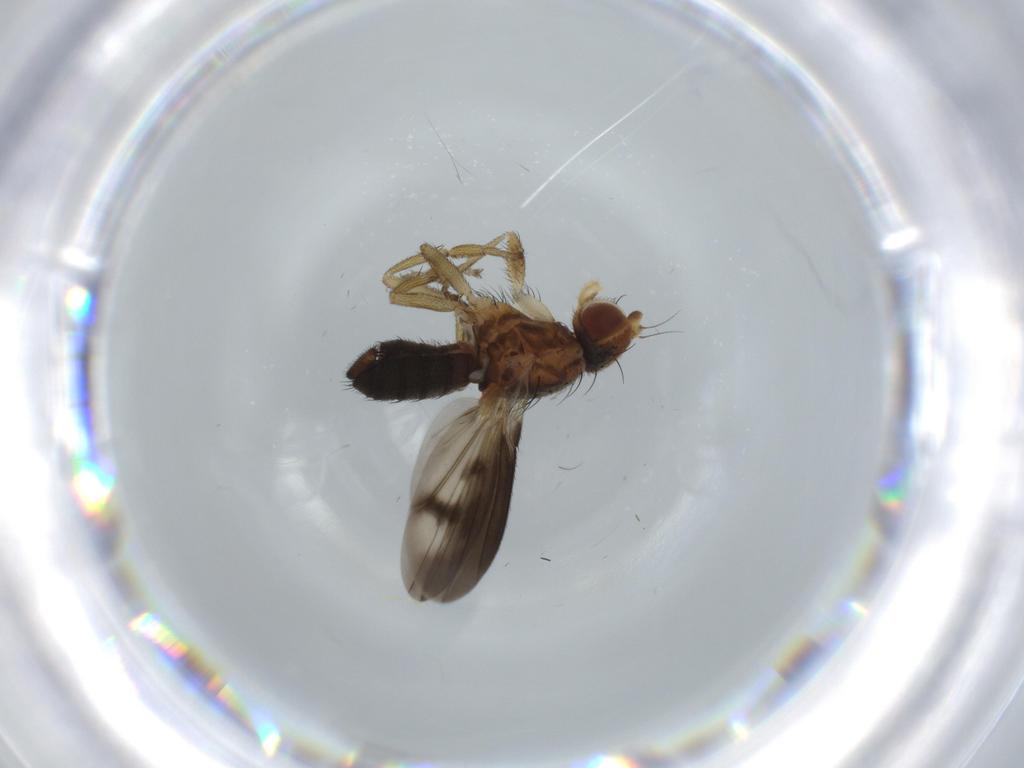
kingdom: Animalia
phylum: Arthropoda
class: Insecta
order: Diptera
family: Heleomyzidae
